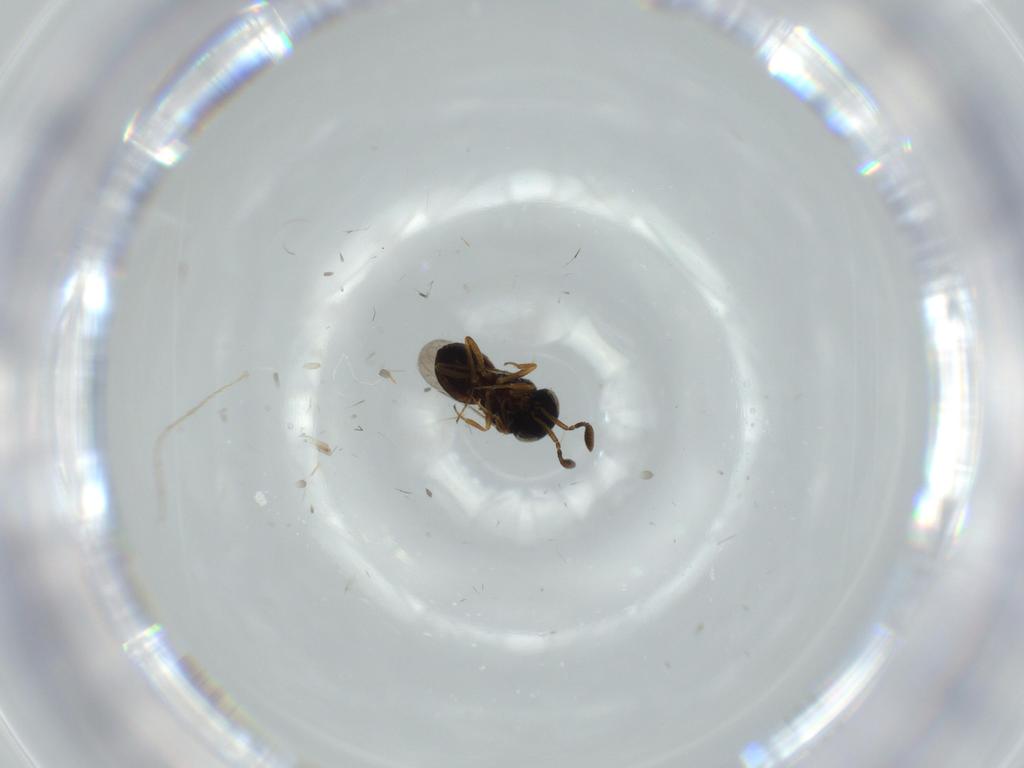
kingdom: Animalia
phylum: Arthropoda
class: Insecta
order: Coleoptera
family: Curculionidae
